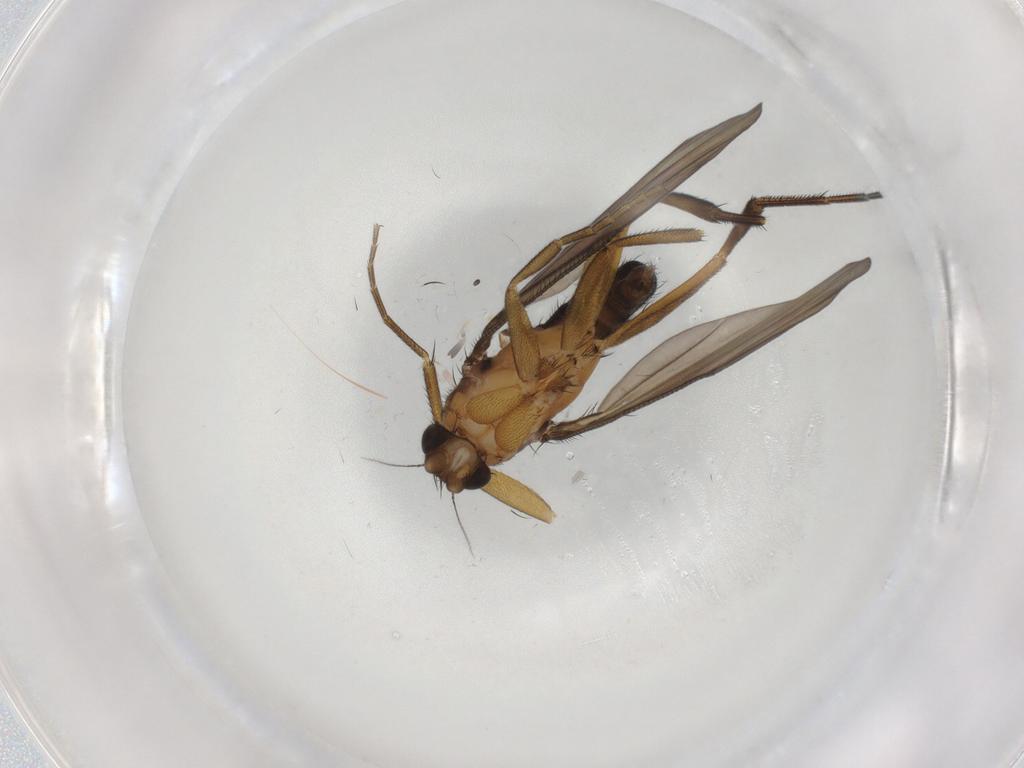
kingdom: Animalia
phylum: Arthropoda
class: Insecta
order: Diptera
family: Phoridae
